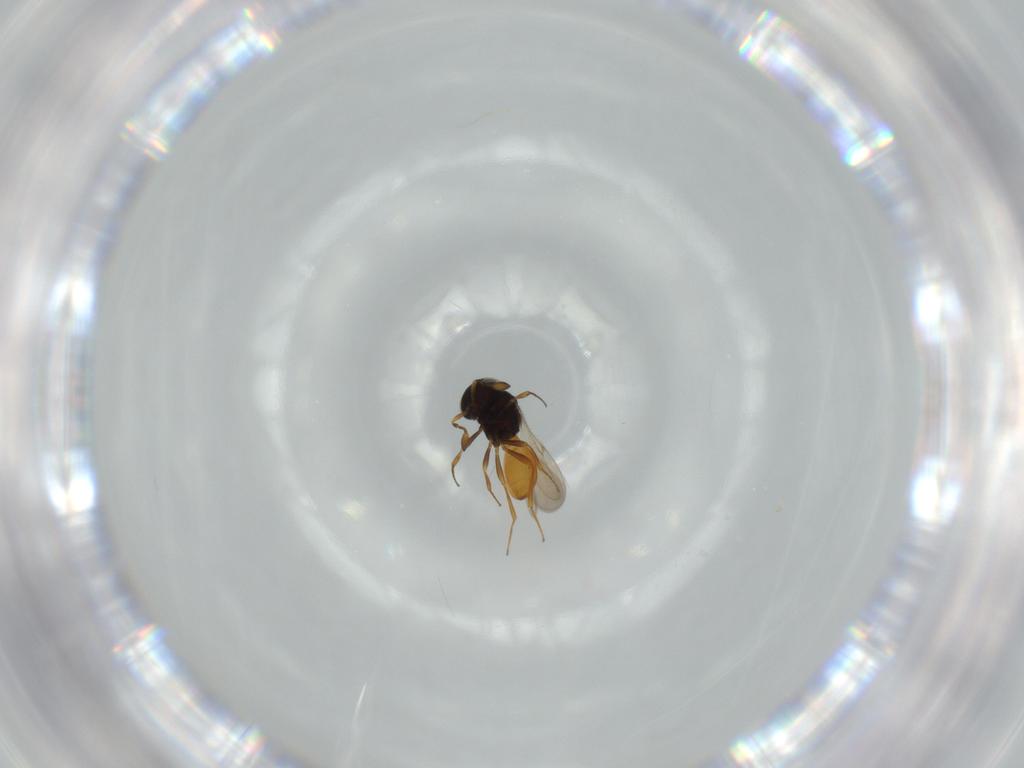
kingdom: Animalia
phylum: Arthropoda
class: Insecta
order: Hymenoptera
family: Scelionidae
